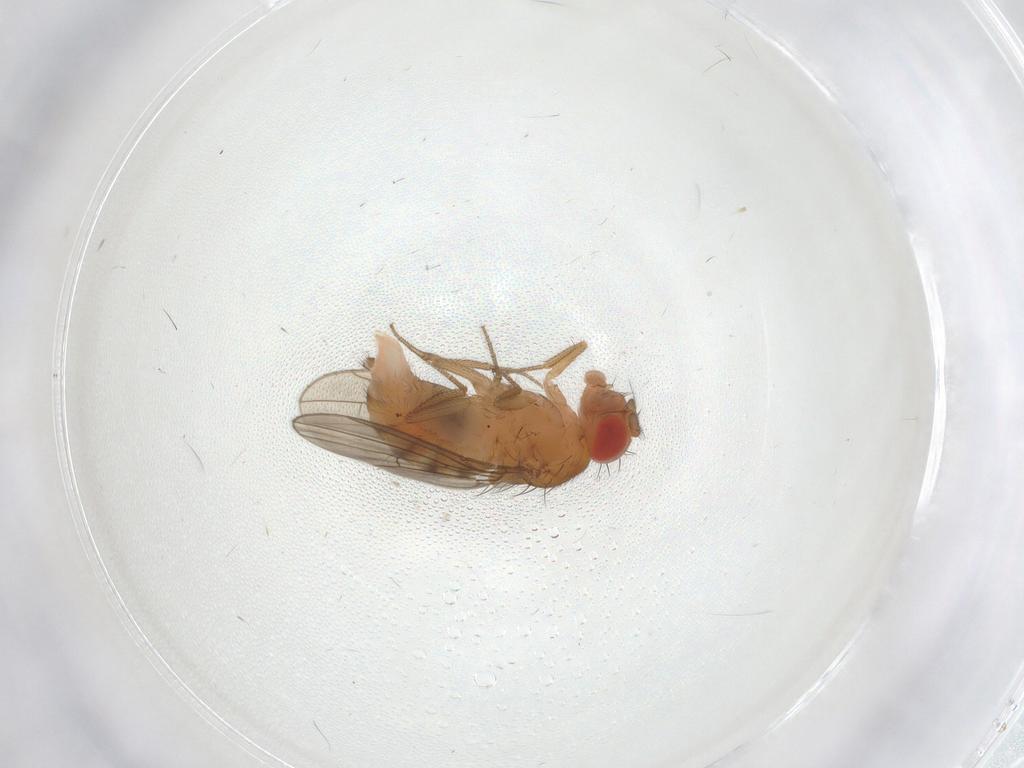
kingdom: Animalia
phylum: Arthropoda
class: Insecta
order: Diptera
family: Drosophilidae
